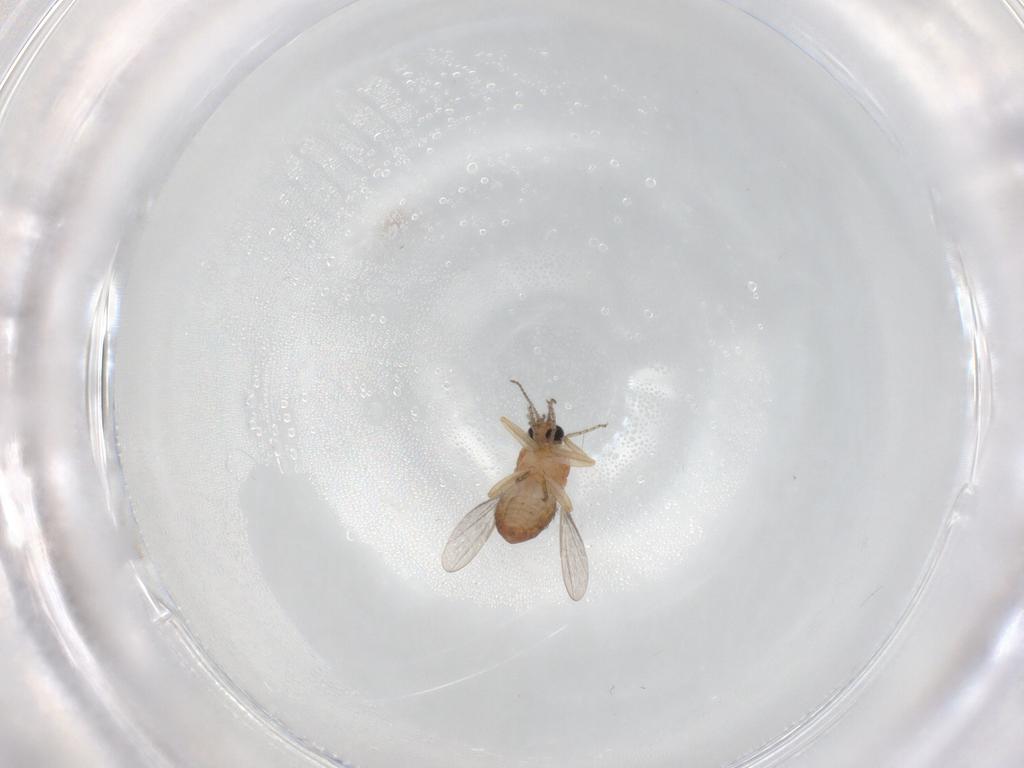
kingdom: Animalia
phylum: Arthropoda
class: Insecta
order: Diptera
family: Ceratopogonidae
